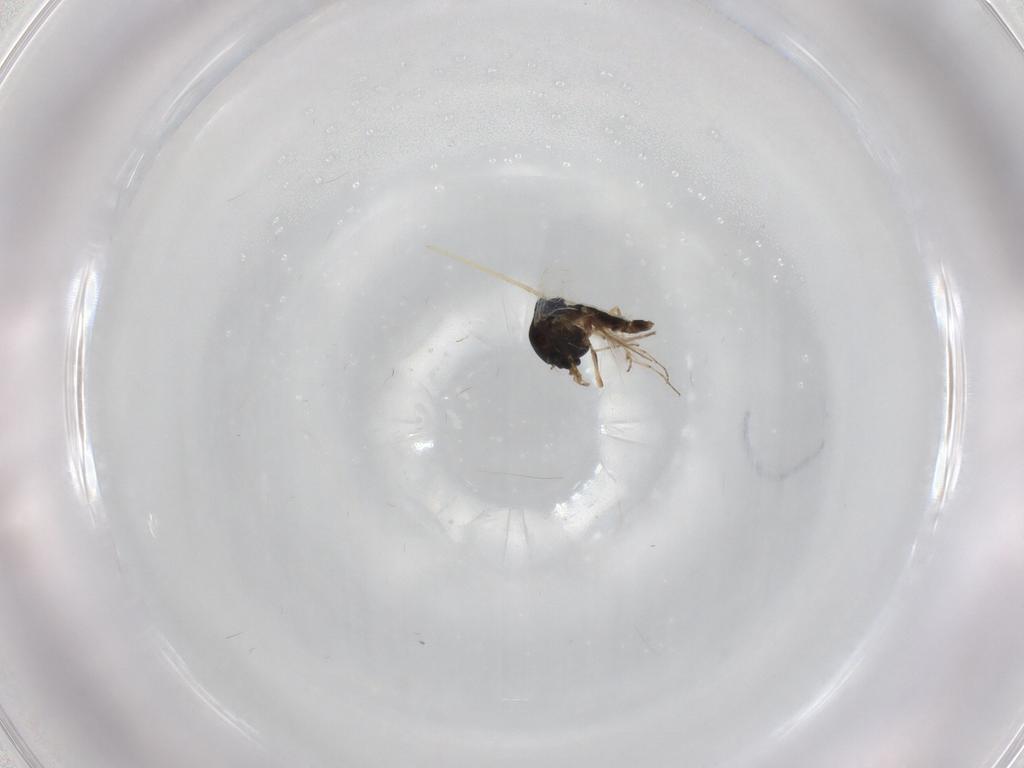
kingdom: Animalia
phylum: Arthropoda
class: Insecta
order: Diptera
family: Chironomidae
